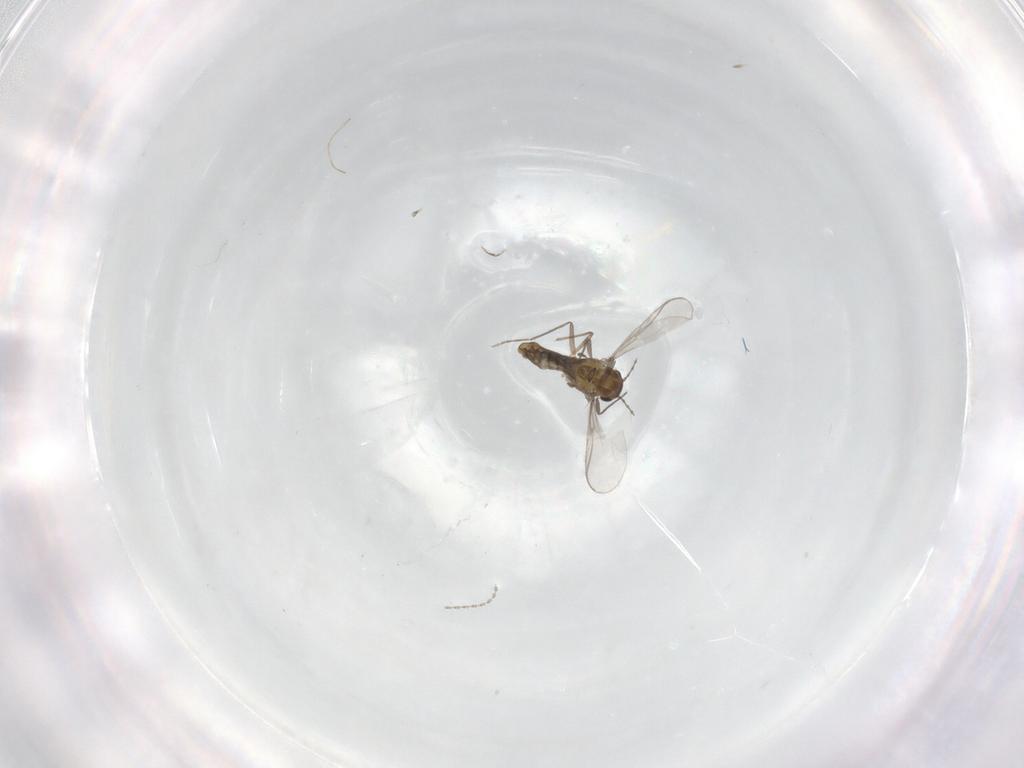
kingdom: Animalia
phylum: Arthropoda
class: Insecta
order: Diptera
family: Chironomidae
